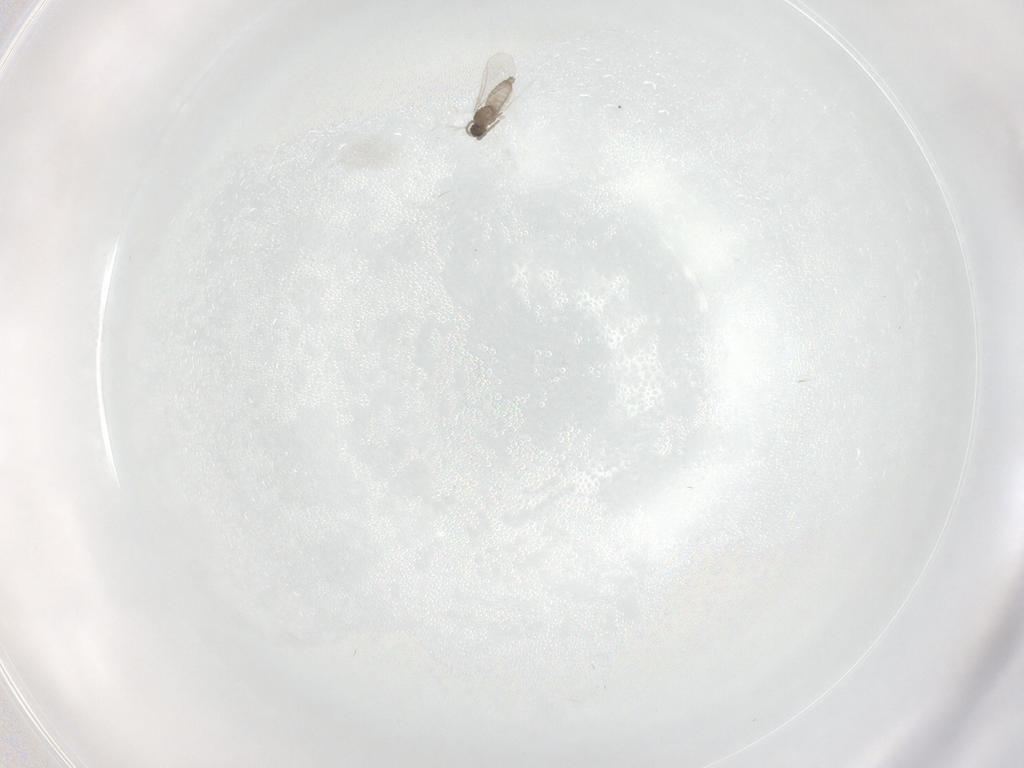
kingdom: Animalia
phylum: Arthropoda
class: Insecta
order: Diptera
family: Cecidomyiidae
